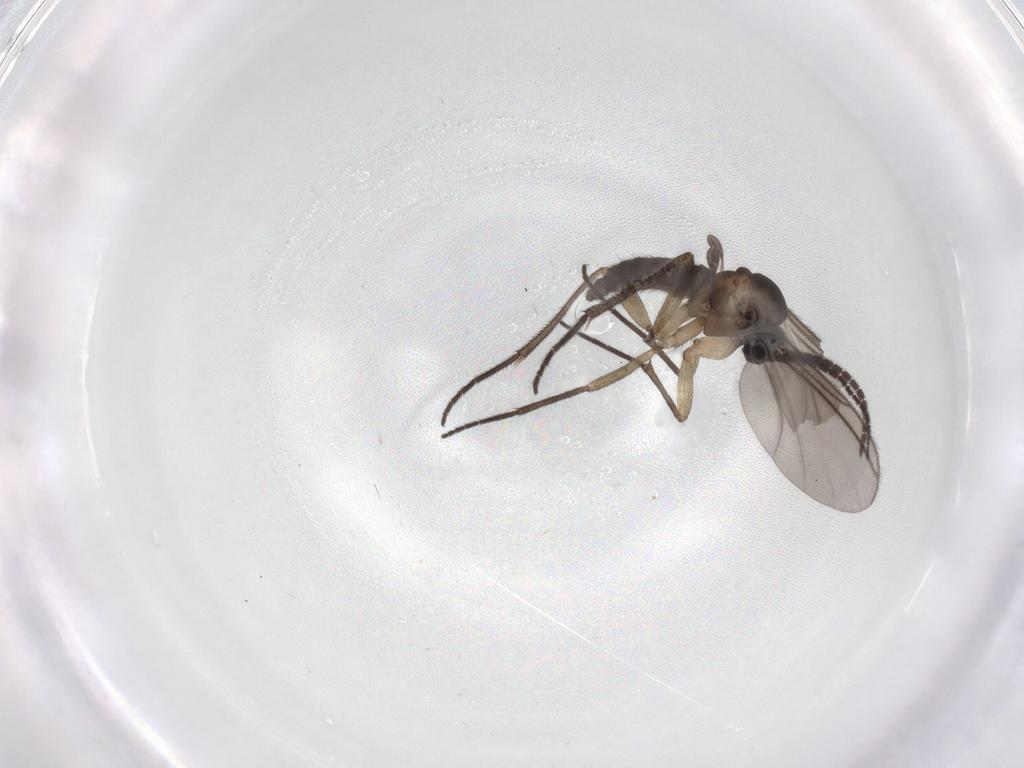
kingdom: Animalia
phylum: Arthropoda
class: Insecta
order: Diptera
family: Sciaridae
